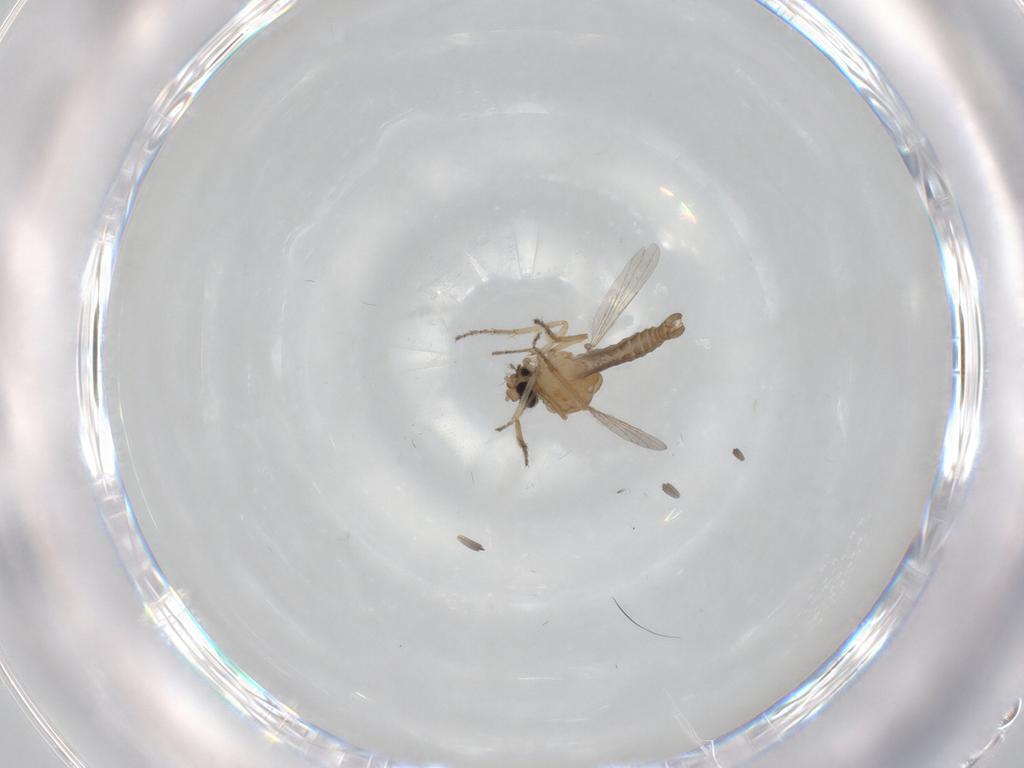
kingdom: Animalia
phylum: Arthropoda
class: Insecta
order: Diptera
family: Ceratopogonidae
